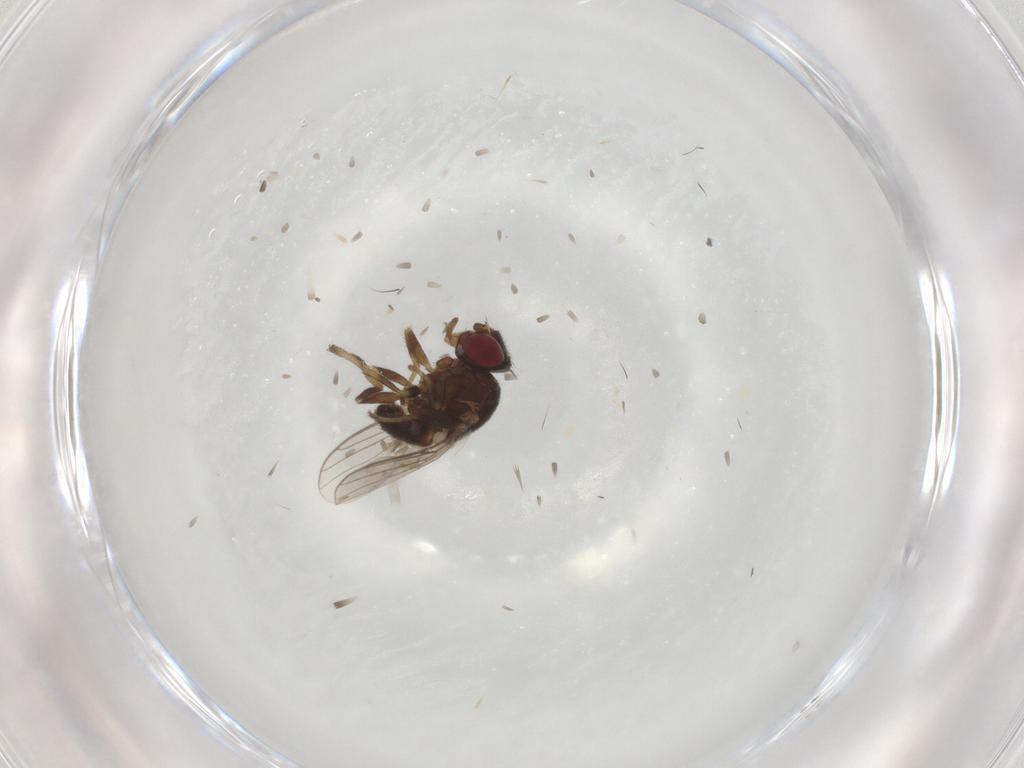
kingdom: Animalia
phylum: Arthropoda
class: Insecta
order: Diptera
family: Chloropidae
